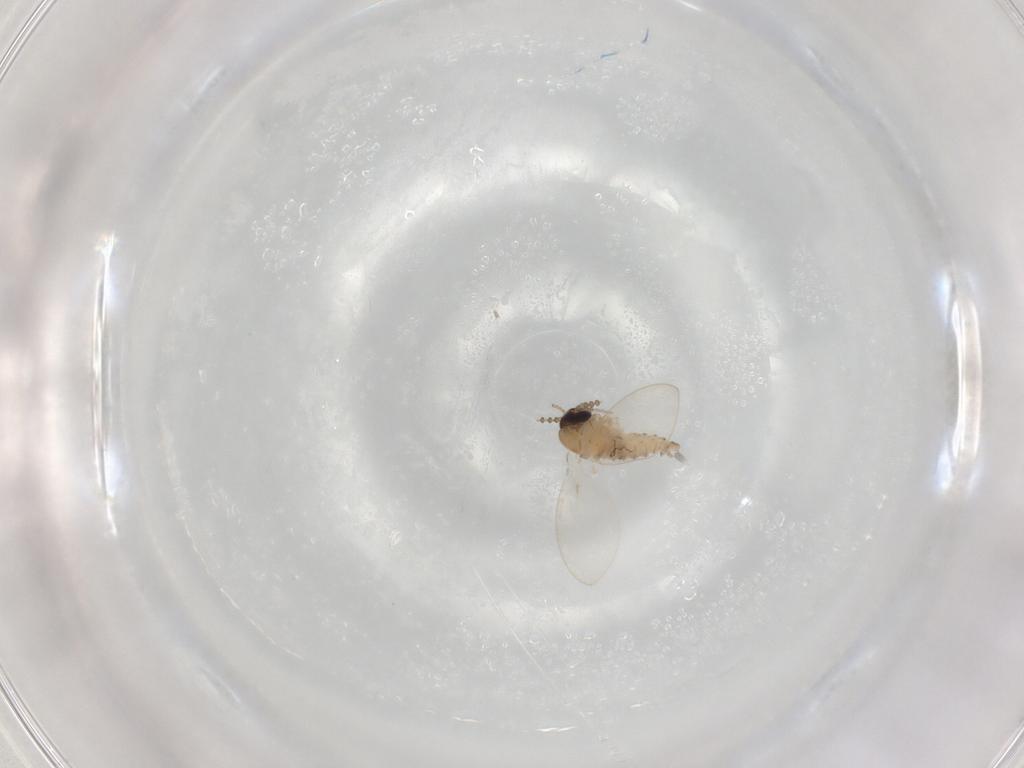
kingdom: Animalia
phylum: Arthropoda
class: Insecta
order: Diptera
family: Psychodidae
